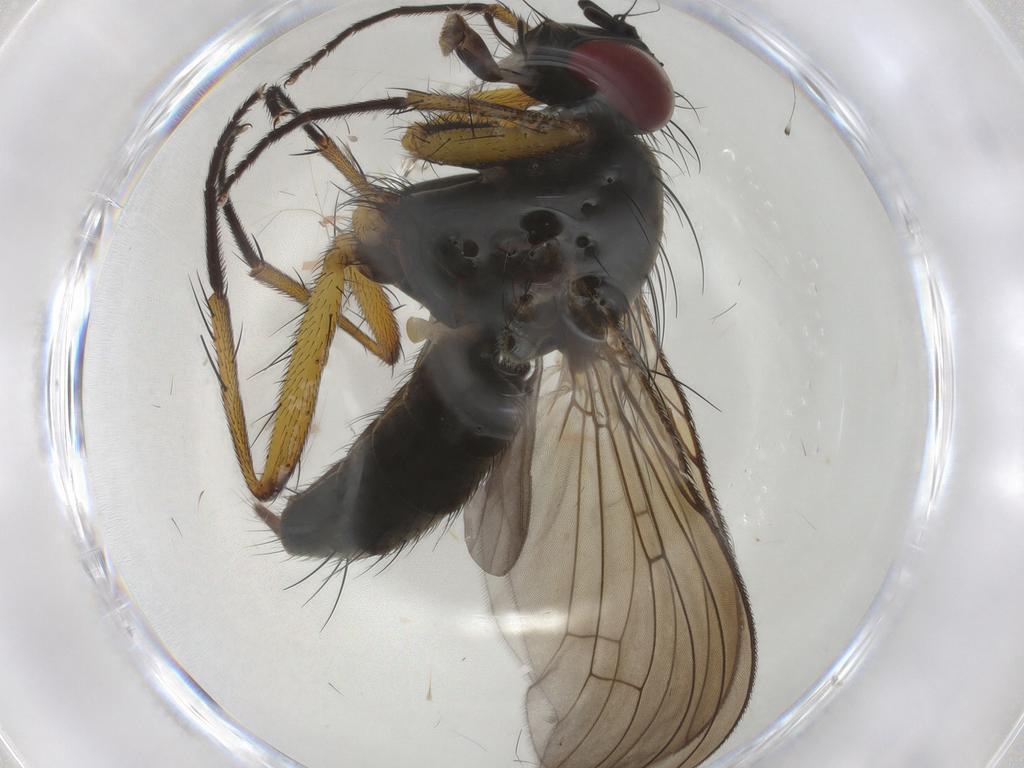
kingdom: Animalia
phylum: Arthropoda
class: Insecta
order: Diptera
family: Muscidae
